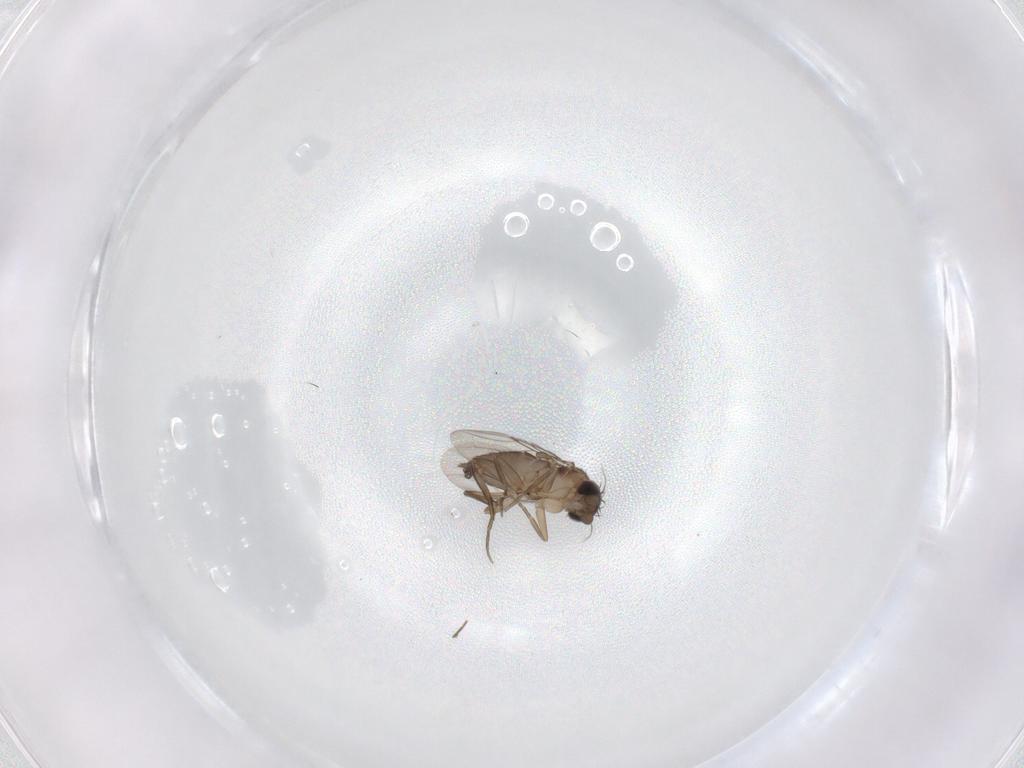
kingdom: Animalia
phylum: Arthropoda
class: Insecta
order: Diptera
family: Phoridae
